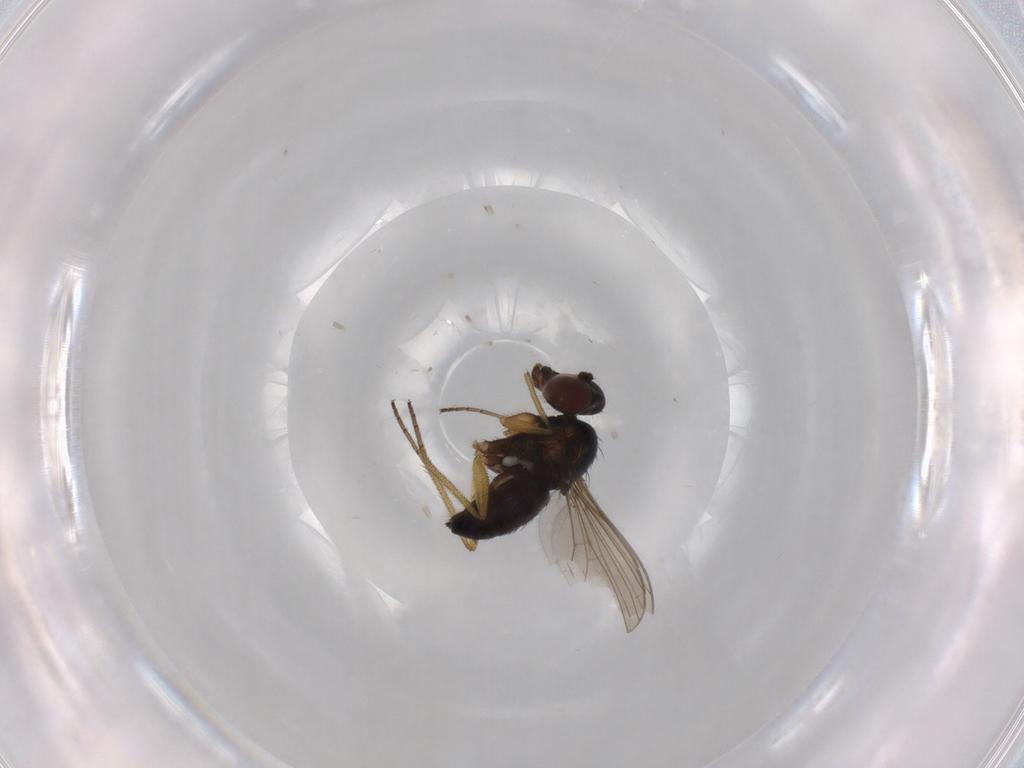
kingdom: Animalia
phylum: Arthropoda
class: Insecta
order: Diptera
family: Dolichopodidae
